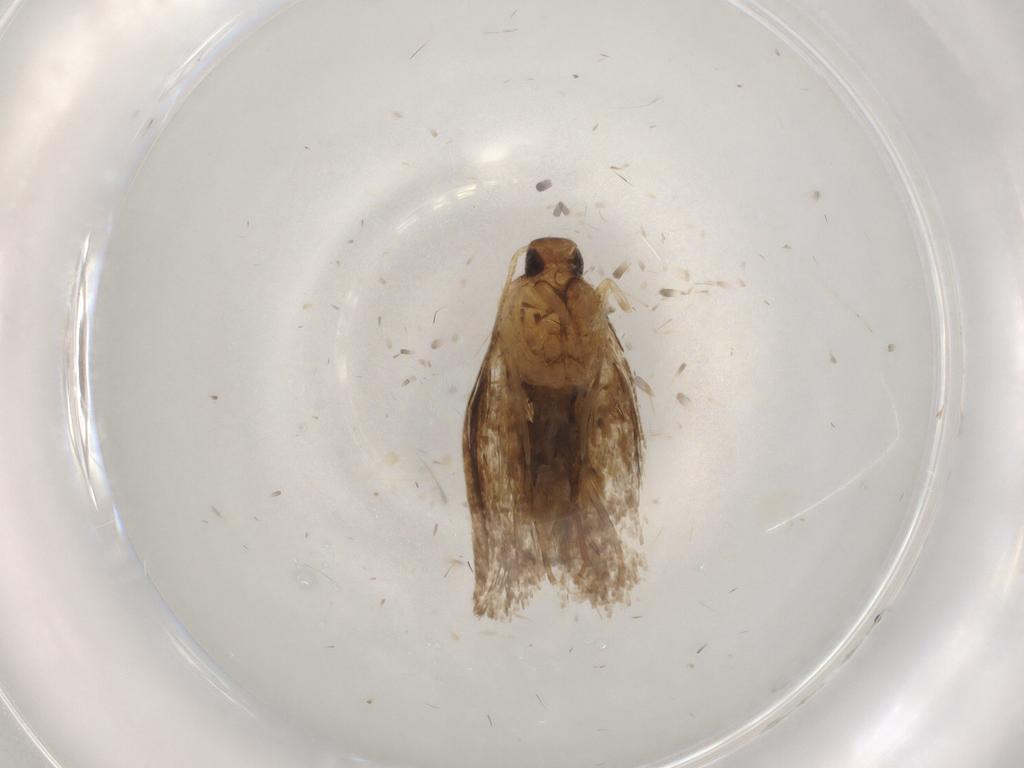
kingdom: Animalia
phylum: Arthropoda
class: Insecta
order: Lepidoptera
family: Oecophoridae
